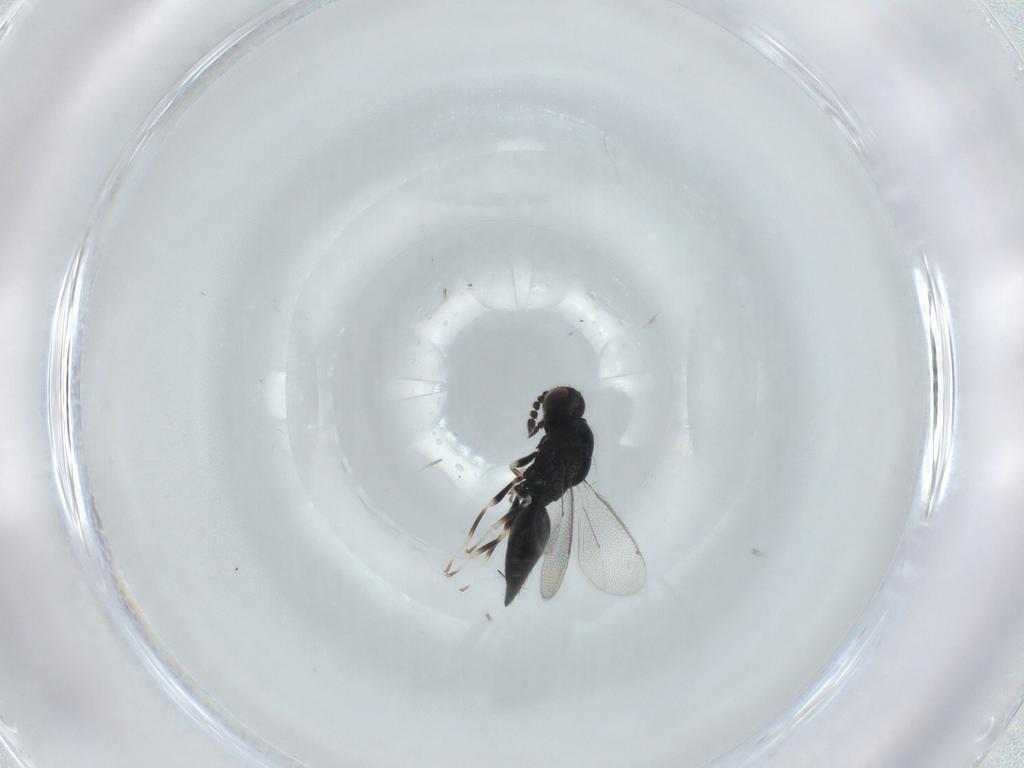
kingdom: Animalia
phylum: Arthropoda
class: Insecta
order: Hymenoptera
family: Eulophidae
